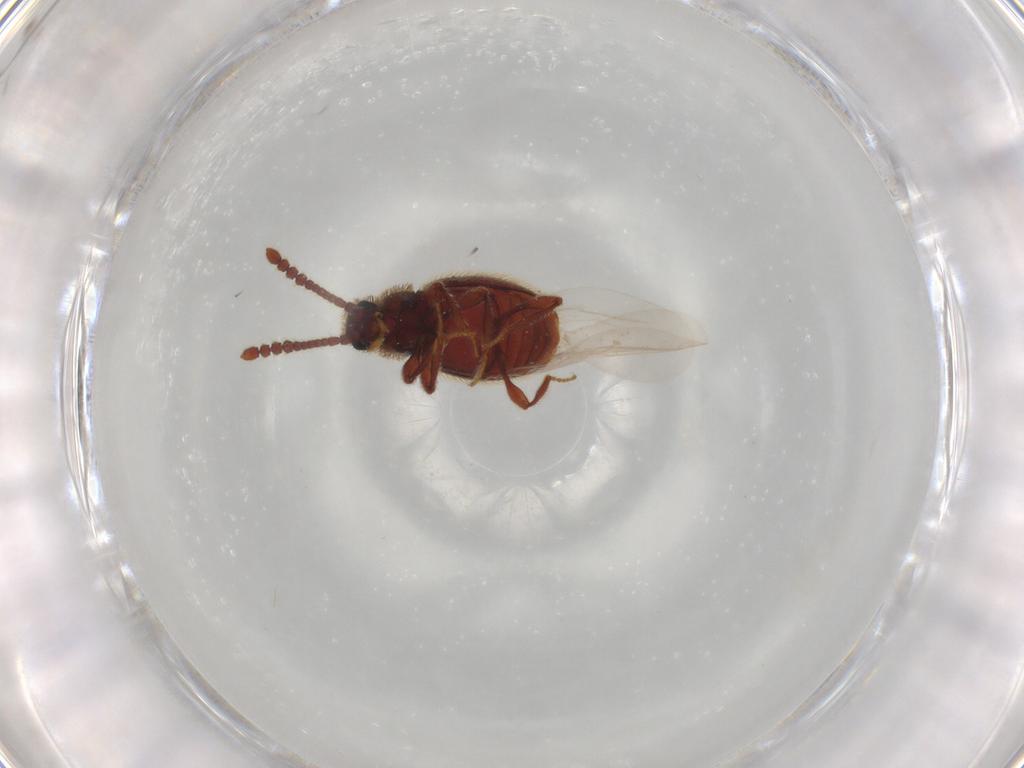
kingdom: Animalia
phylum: Arthropoda
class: Insecta
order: Coleoptera
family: Staphylinidae
